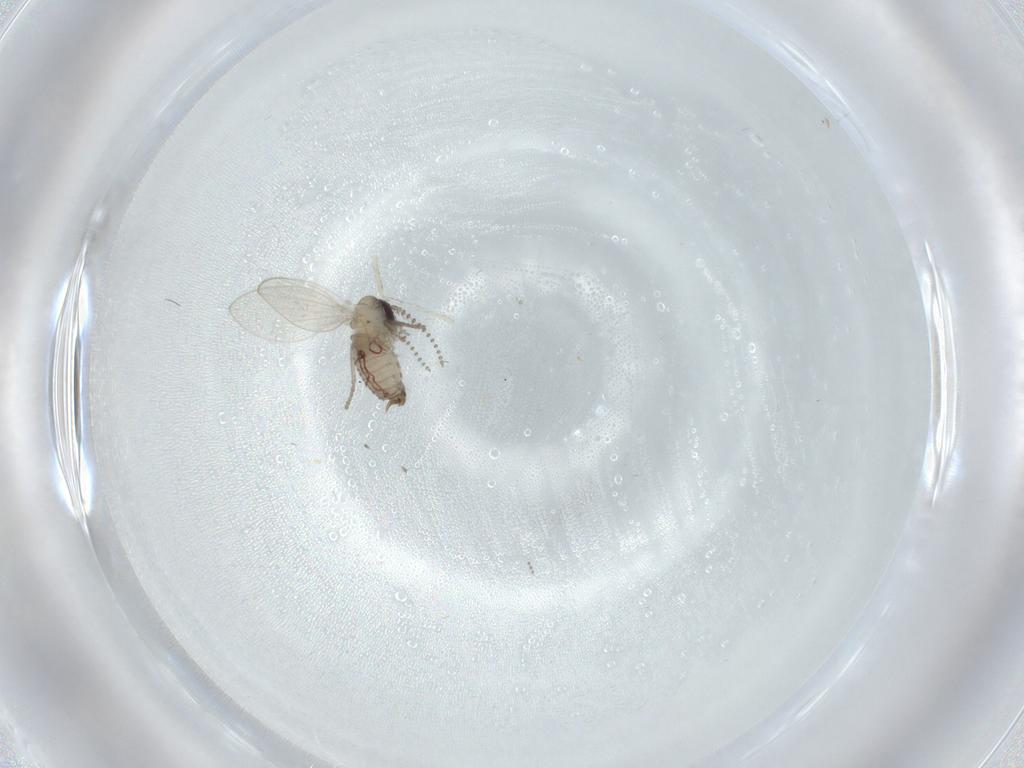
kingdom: Animalia
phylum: Arthropoda
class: Insecta
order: Diptera
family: Psychodidae
